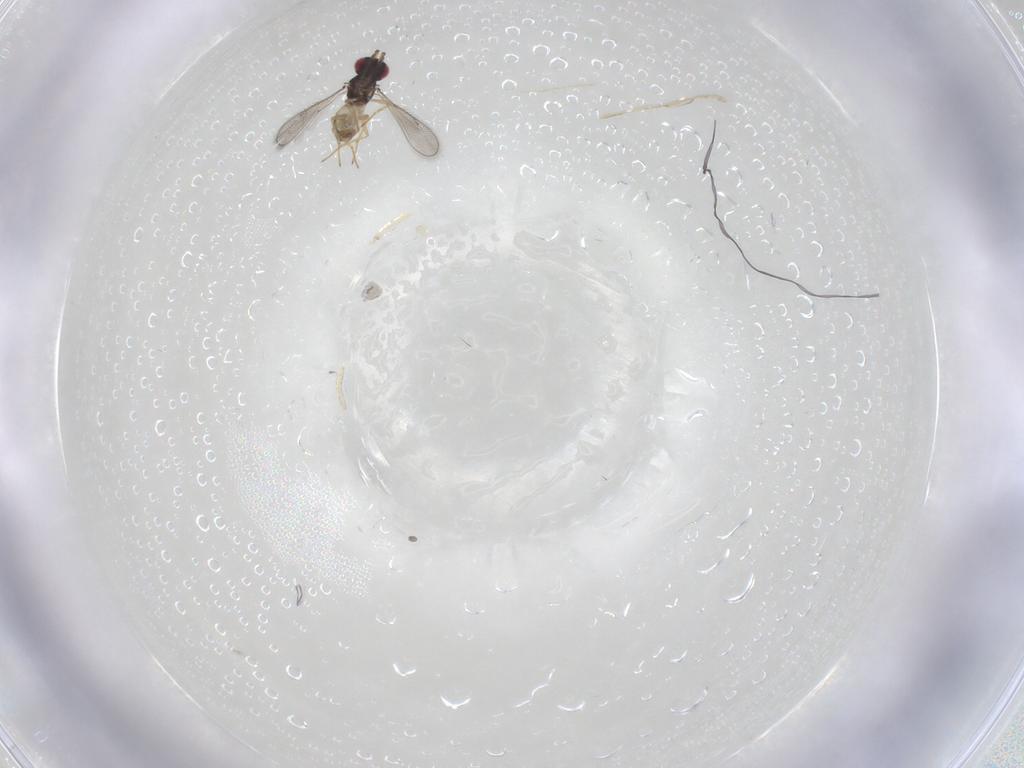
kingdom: Animalia
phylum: Arthropoda
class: Insecta
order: Hymenoptera
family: Eulophidae
